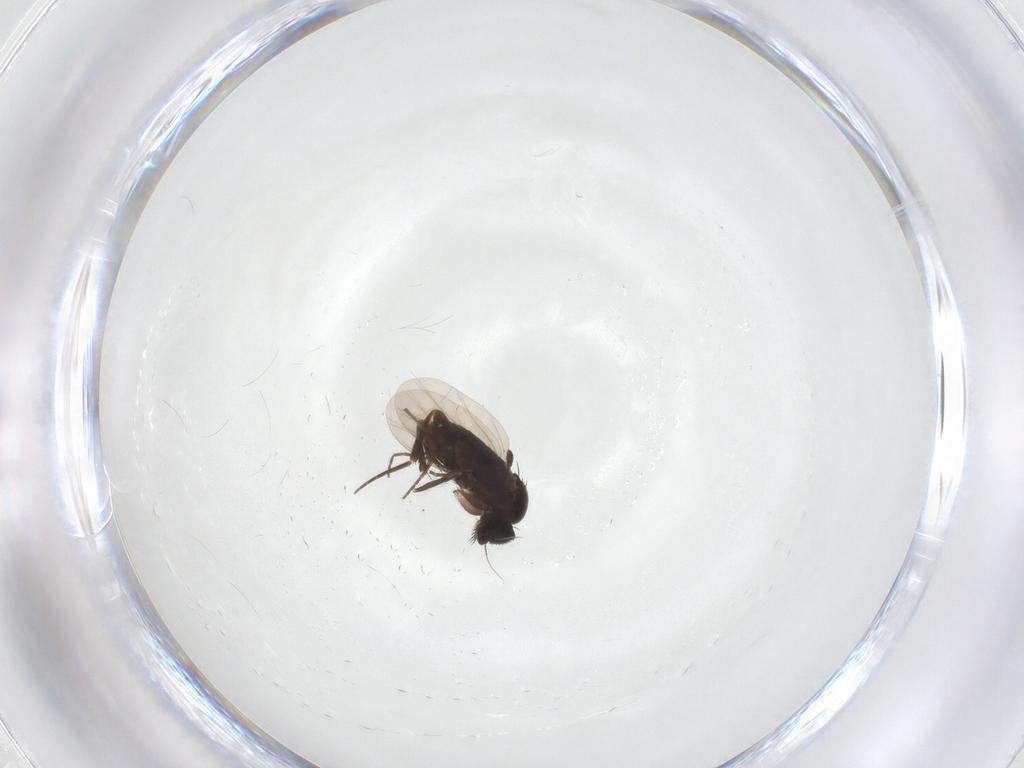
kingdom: Animalia
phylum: Arthropoda
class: Insecta
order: Diptera
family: Phoridae
